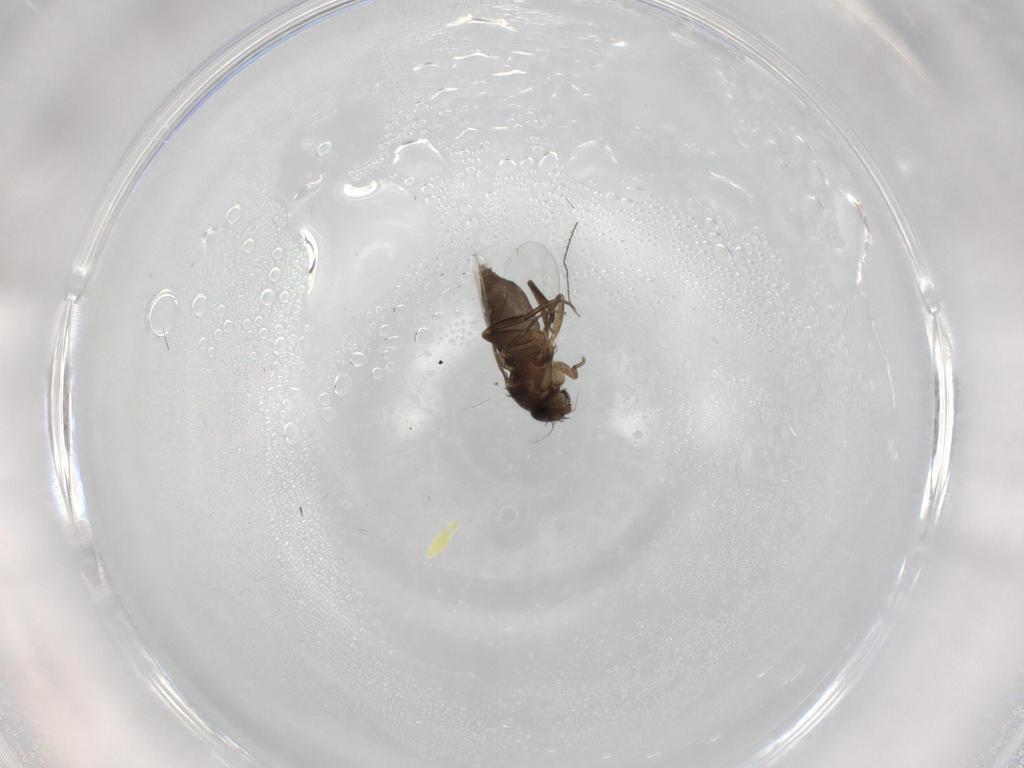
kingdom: Animalia
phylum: Arthropoda
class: Insecta
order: Diptera
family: Phoridae
